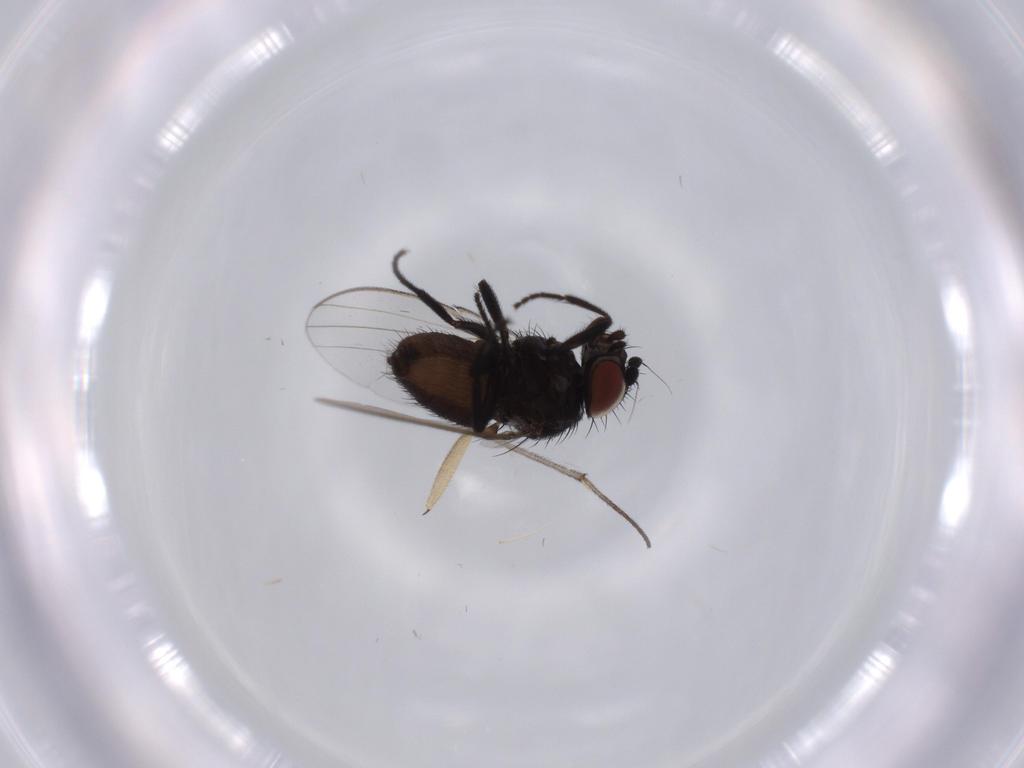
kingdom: Animalia
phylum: Arthropoda
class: Insecta
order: Diptera
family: Sciaridae
